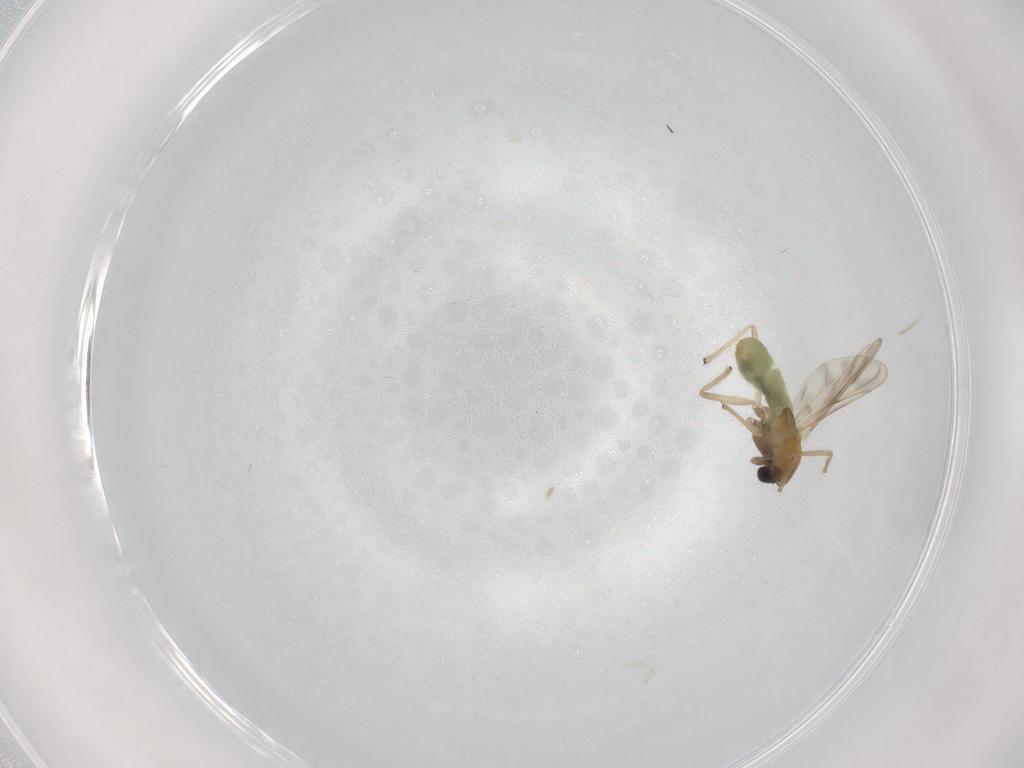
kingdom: Animalia
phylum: Arthropoda
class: Insecta
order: Diptera
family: Chironomidae
